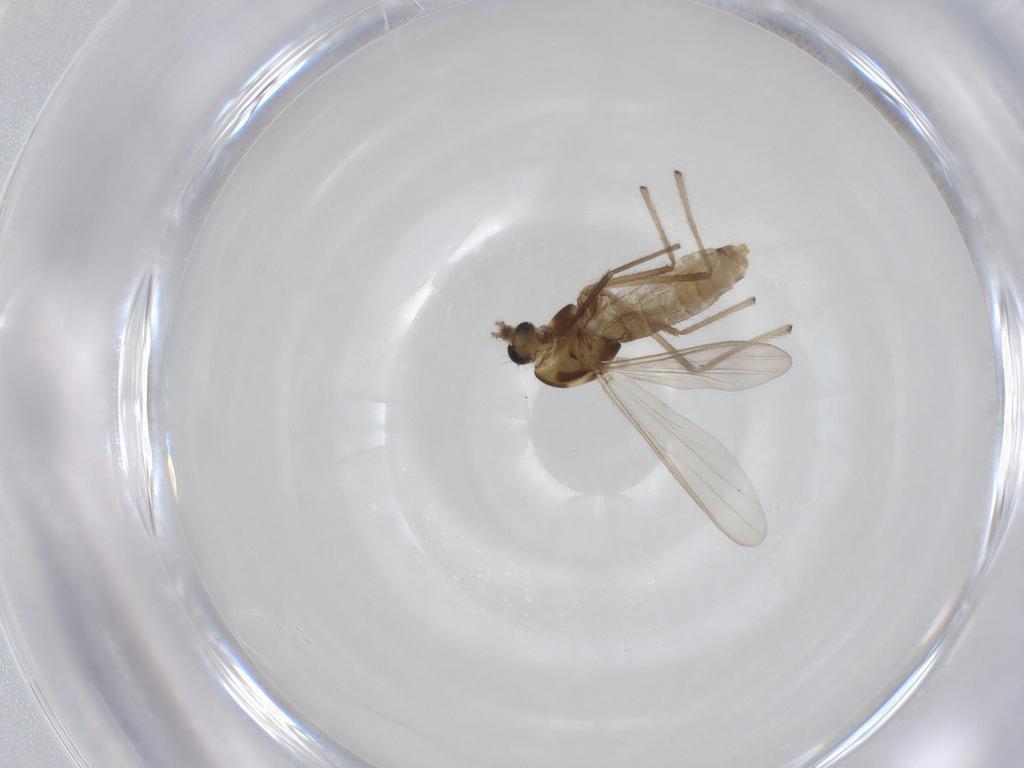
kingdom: Animalia
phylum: Arthropoda
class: Insecta
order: Diptera
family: Chironomidae
